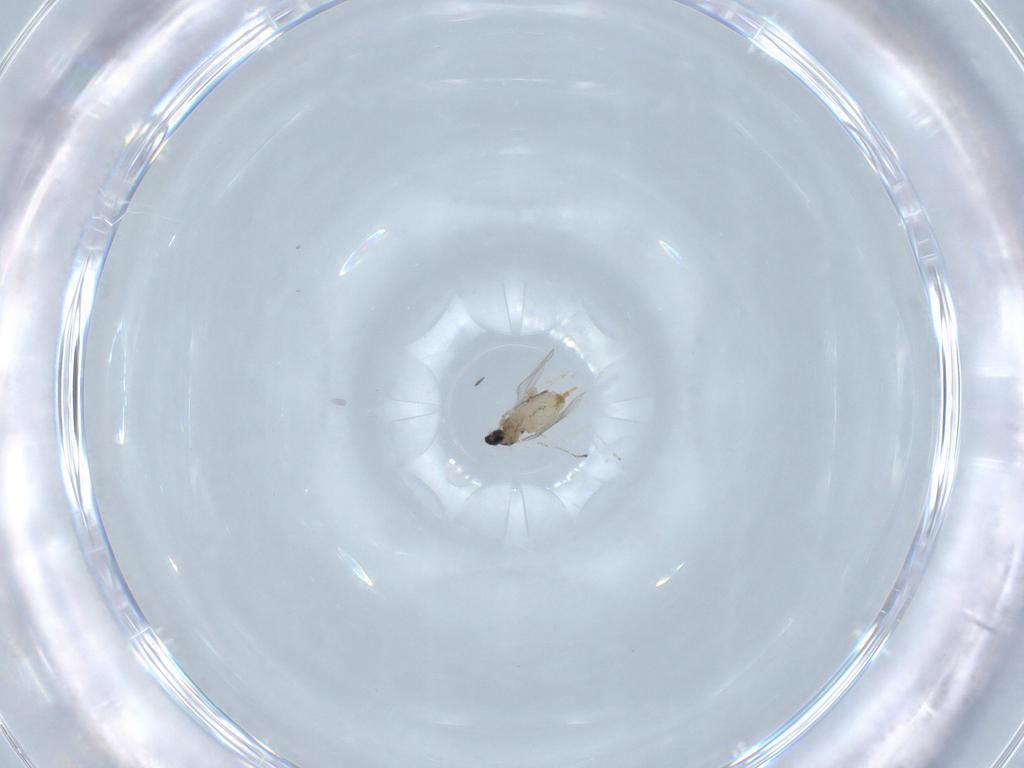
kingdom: Animalia
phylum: Arthropoda
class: Insecta
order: Diptera
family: Cecidomyiidae
